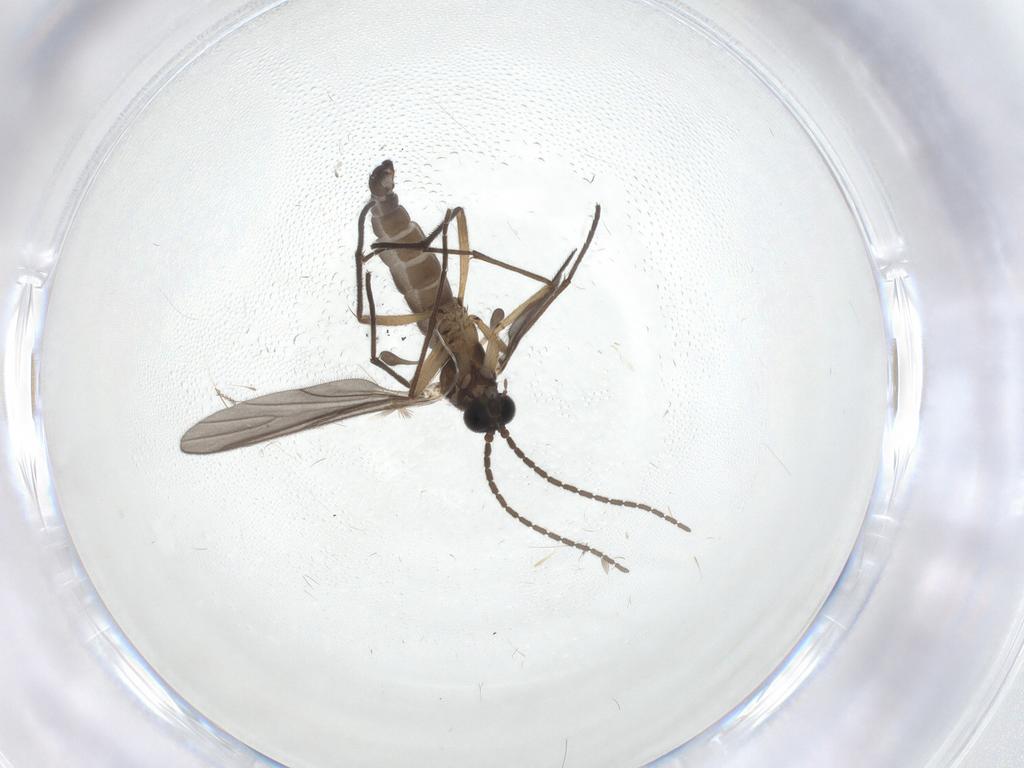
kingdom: Animalia
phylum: Arthropoda
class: Insecta
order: Diptera
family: Sciaridae
